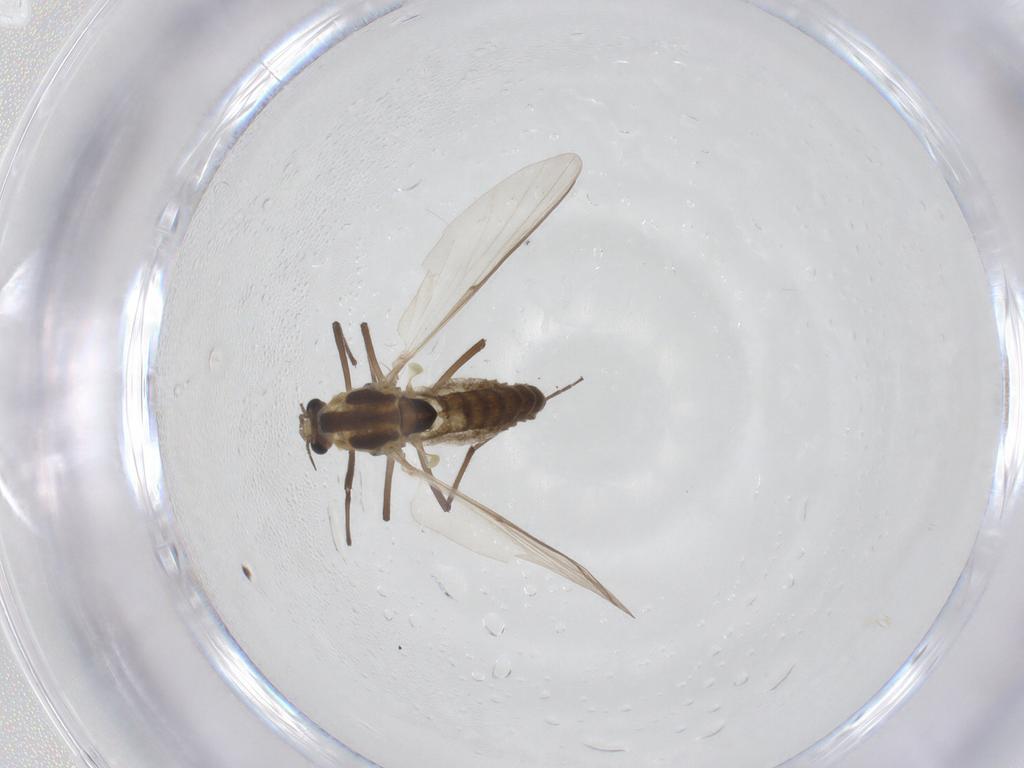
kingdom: Animalia
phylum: Arthropoda
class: Insecta
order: Diptera
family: Chironomidae
